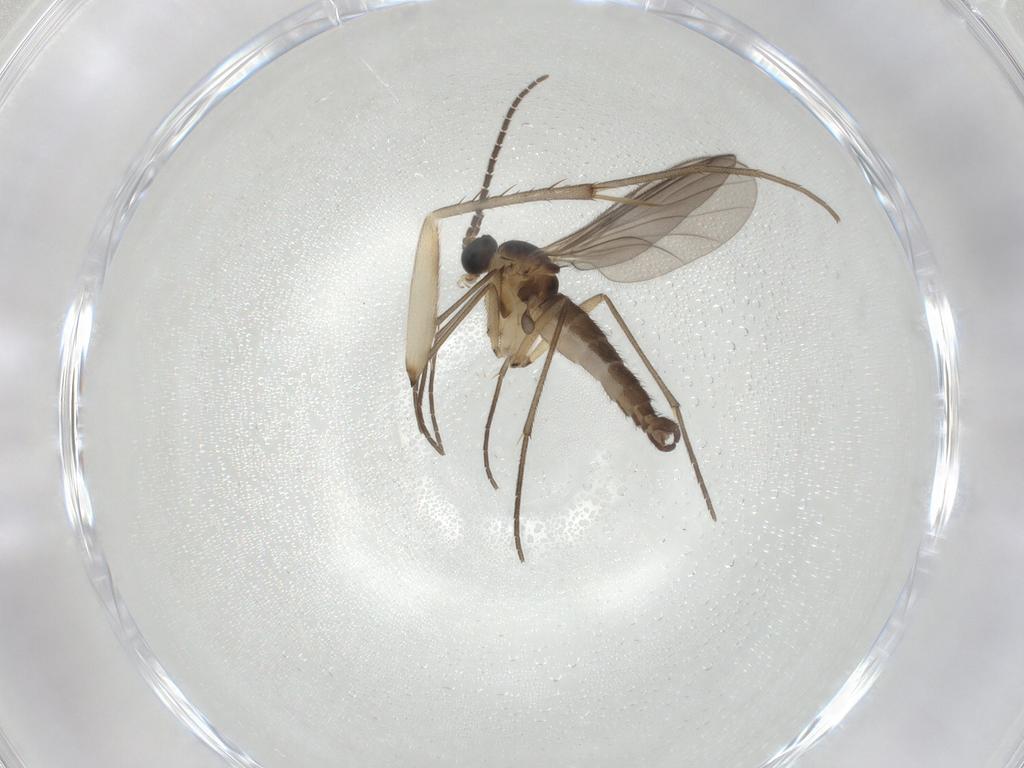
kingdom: Animalia
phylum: Arthropoda
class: Insecta
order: Diptera
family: Sciaridae
